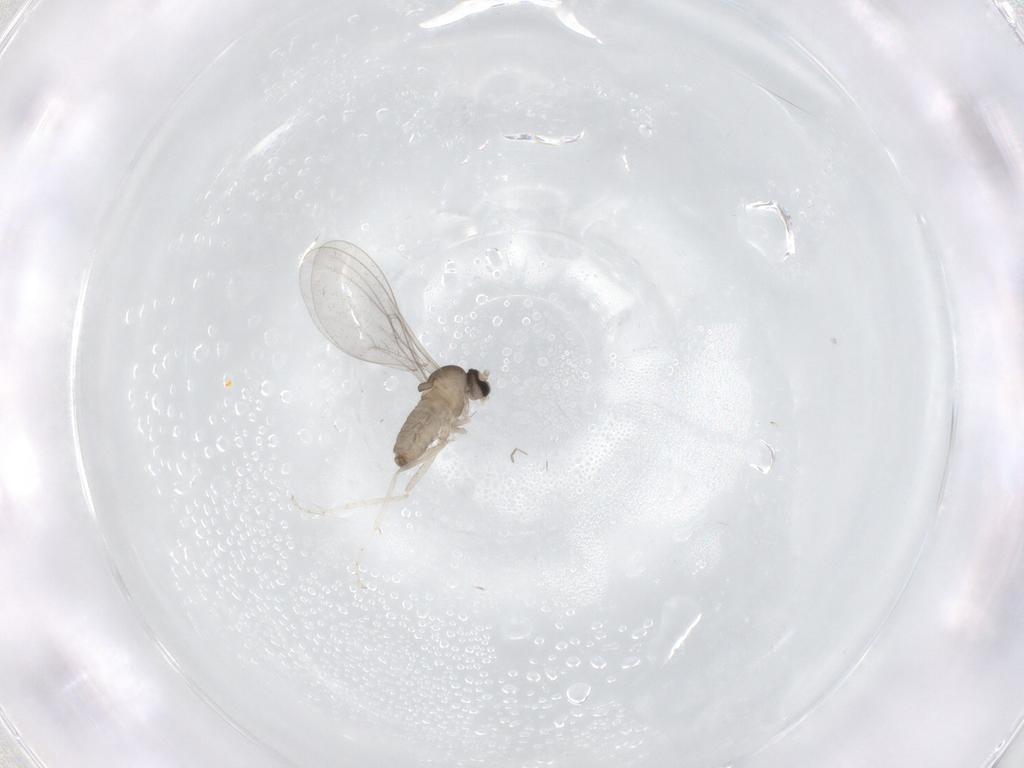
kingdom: Animalia
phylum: Arthropoda
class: Insecta
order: Diptera
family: Cecidomyiidae
